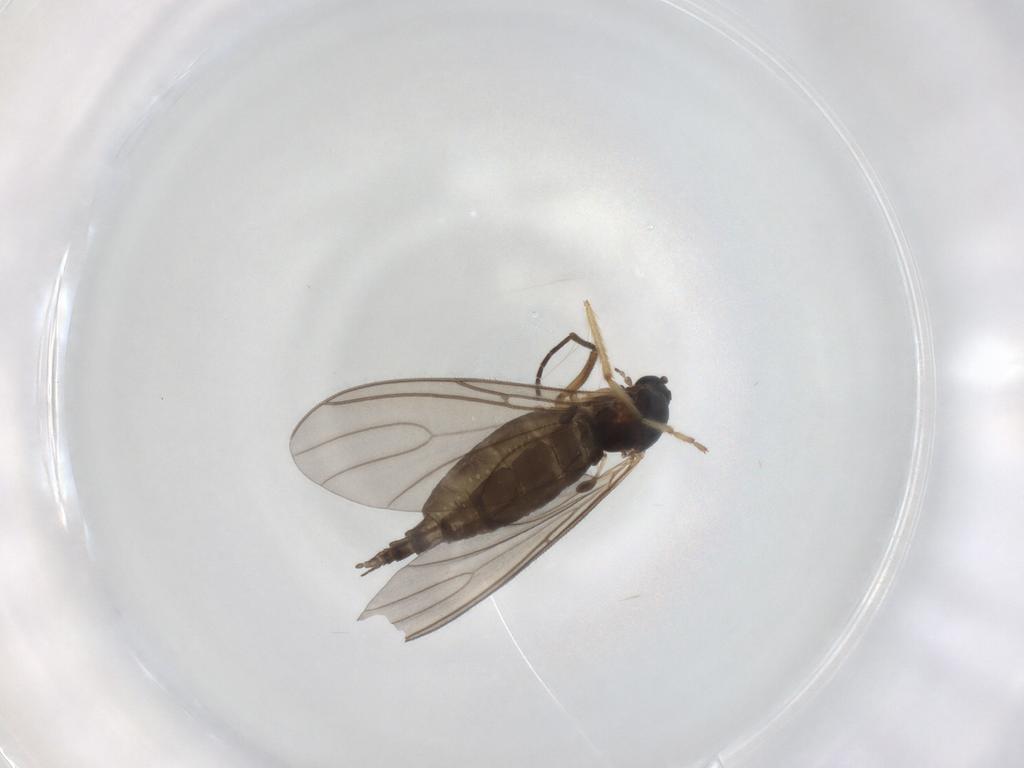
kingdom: Animalia
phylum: Arthropoda
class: Insecta
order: Diptera
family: Sciaridae
